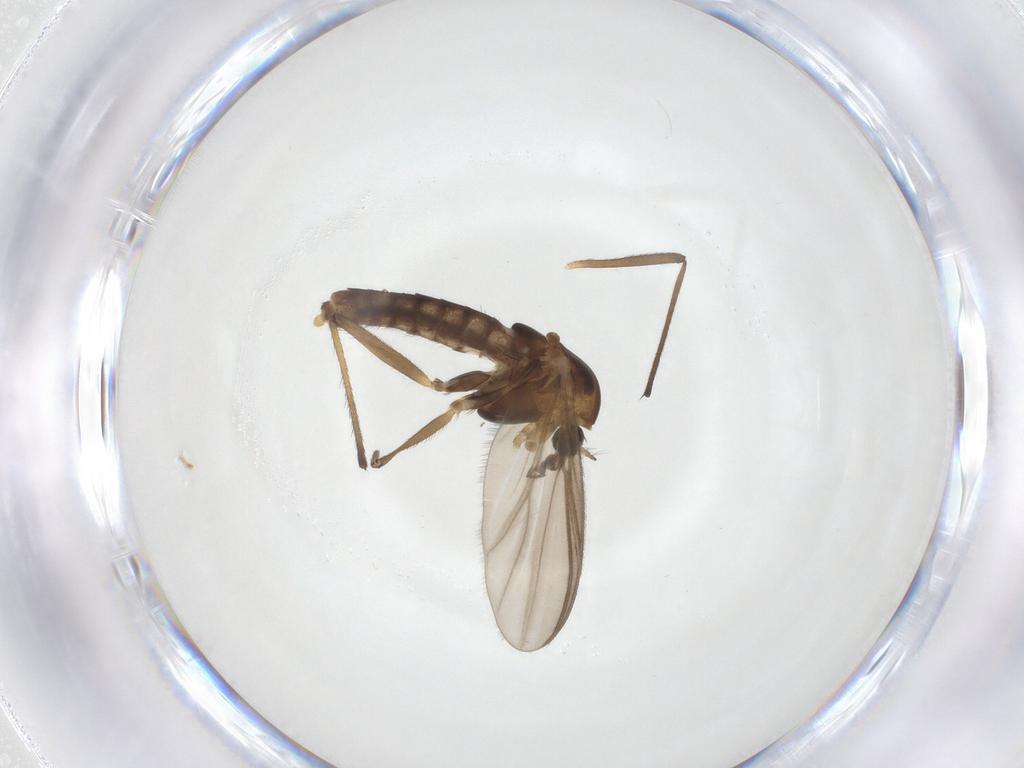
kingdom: Animalia
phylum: Arthropoda
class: Insecta
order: Diptera
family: Chironomidae
